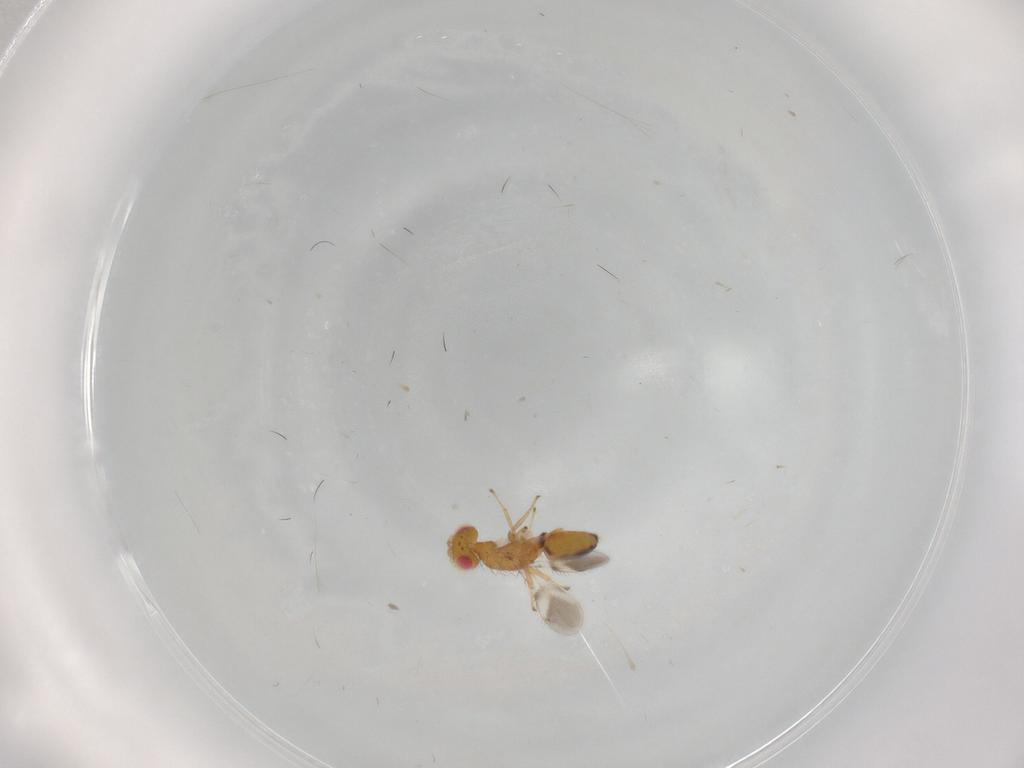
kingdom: Animalia
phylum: Arthropoda
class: Insecta
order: Hymenoptera
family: Eulophidae
